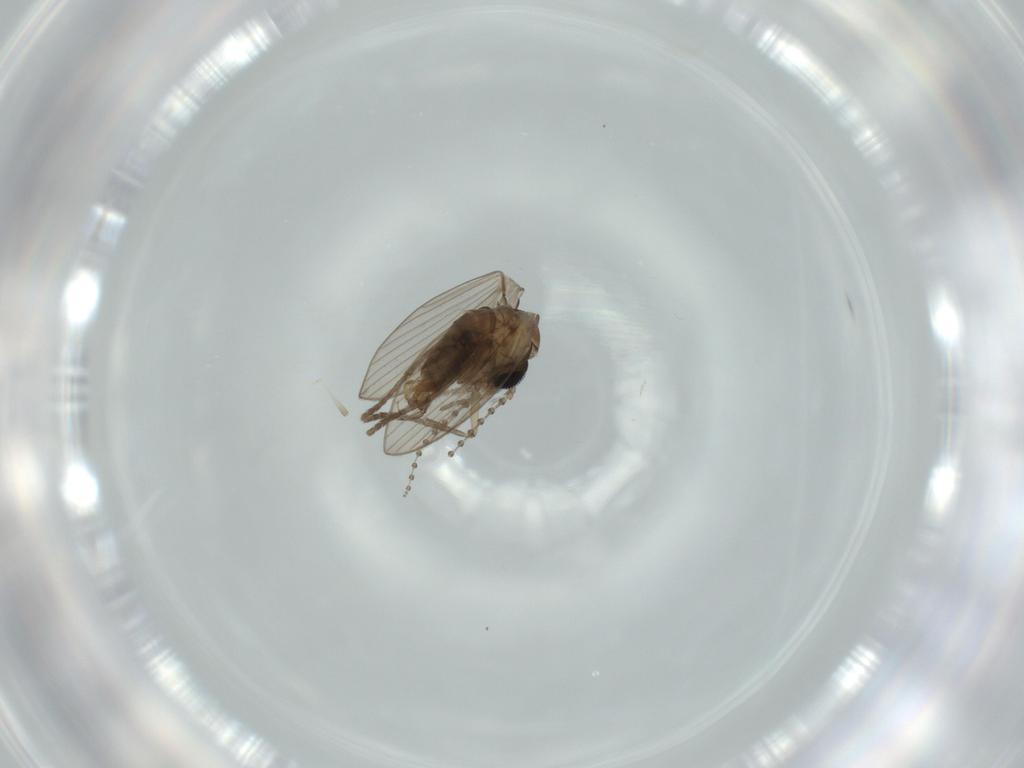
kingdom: Animalia
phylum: Arthropoda
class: Insecta
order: Diptera
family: Psychodidae
